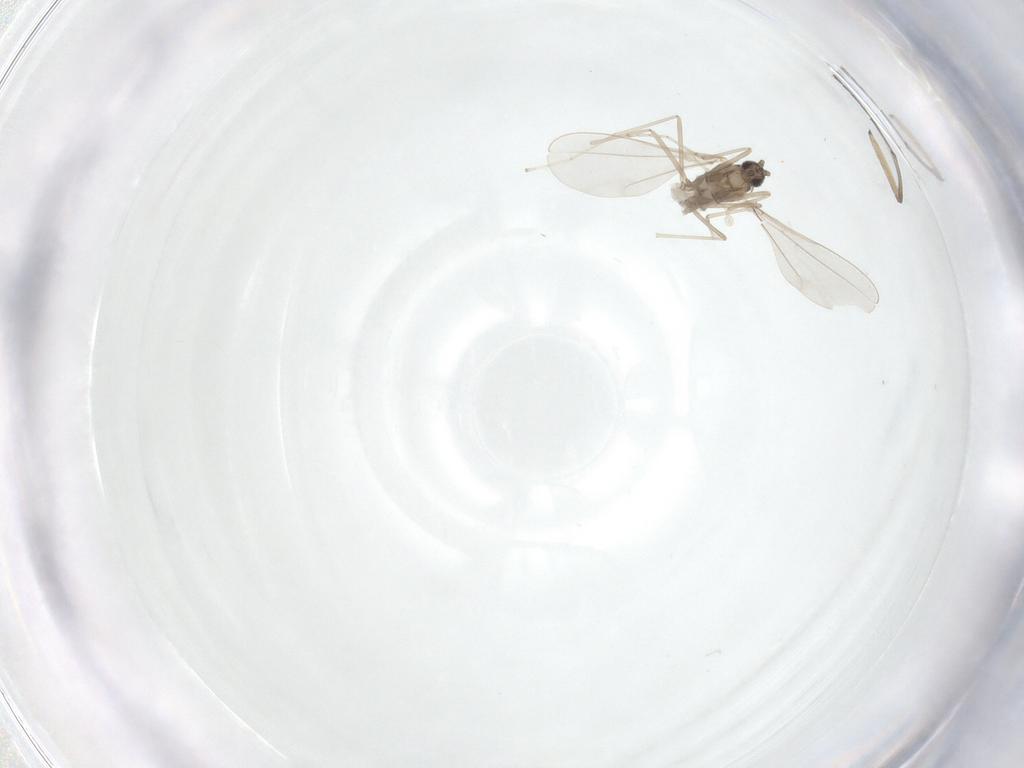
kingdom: Animalia
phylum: Arthropoda
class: Insecta
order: Diptera
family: Cecidomyiidae
